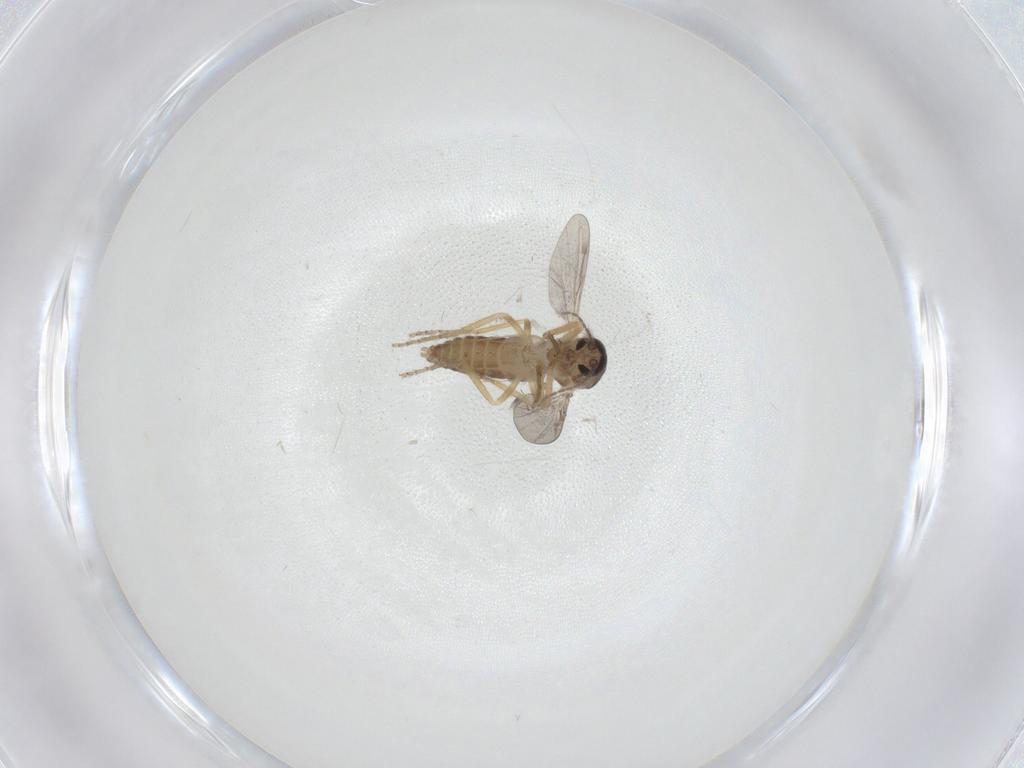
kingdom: Animalia
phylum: Arthropoda
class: Insecta
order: Diptera
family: Ceratopogonidae
